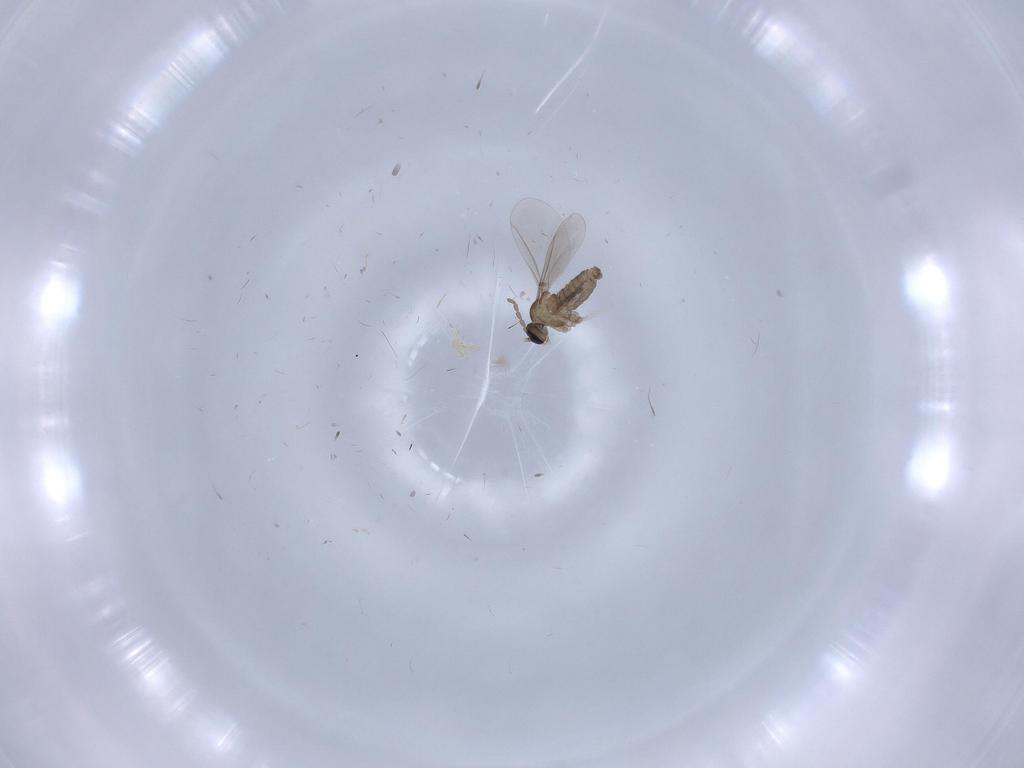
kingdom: Animalia
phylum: Arthropoda
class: Insecta
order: Diptera
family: Cecidomyiidae
